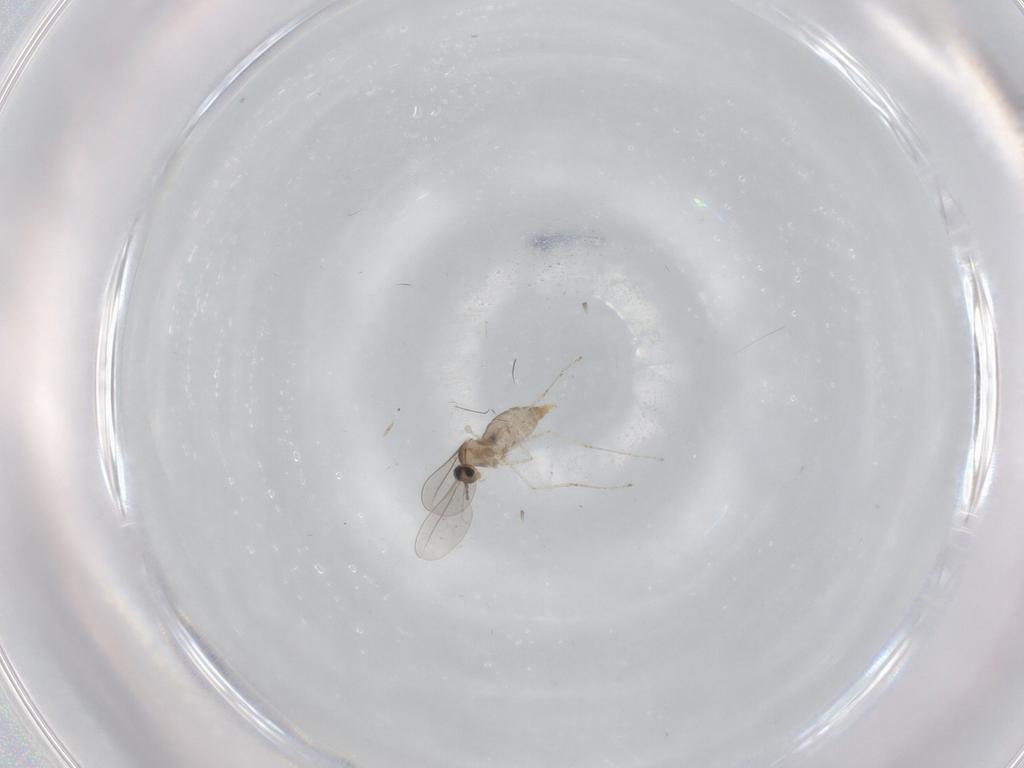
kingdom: Animalia
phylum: Arthropoda
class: Insecta
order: Diptera
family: Cecidomyiidae
